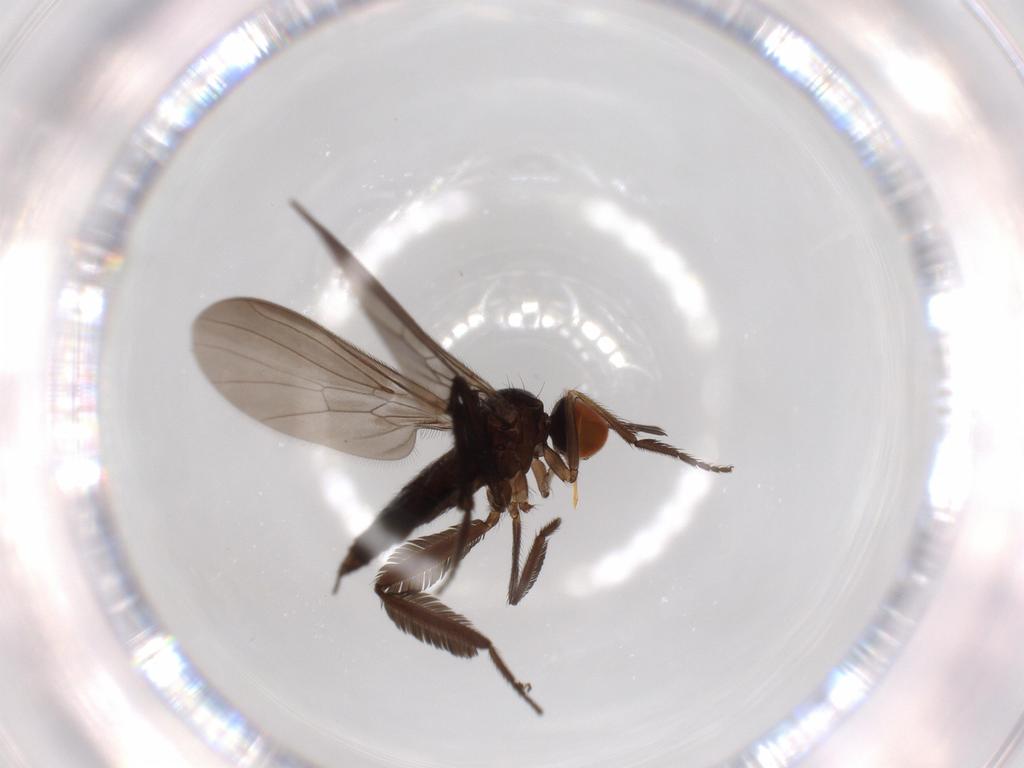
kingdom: Animalia
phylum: Arthropoda
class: Insecta
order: Diptera
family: Empididae
